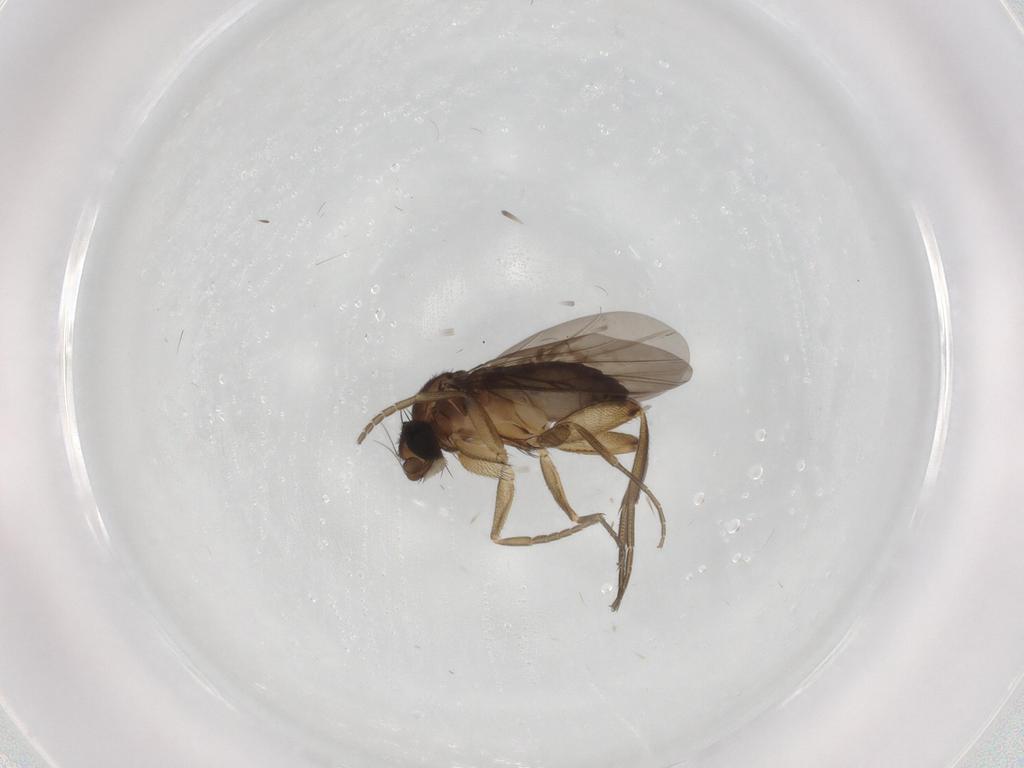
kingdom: Animalia
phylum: Arthropoda
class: Insecta
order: Diptera
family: Phoridae
